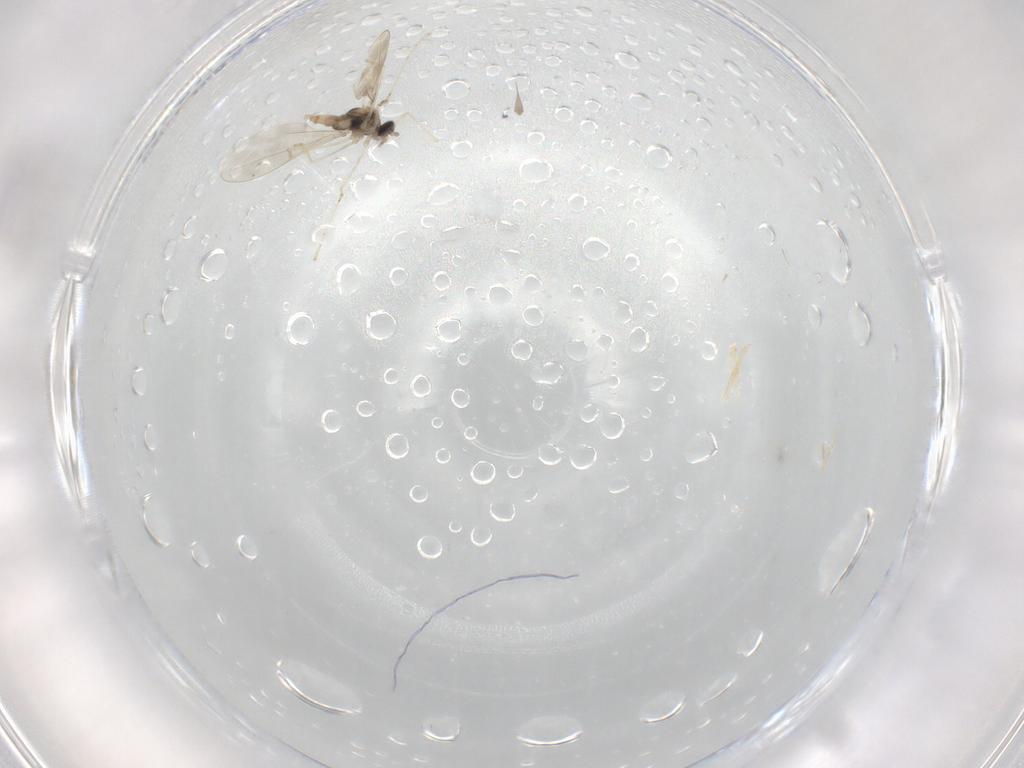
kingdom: Animalia
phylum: Arthropoda
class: Insecta
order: Diptera
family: Cecidomyiidae
